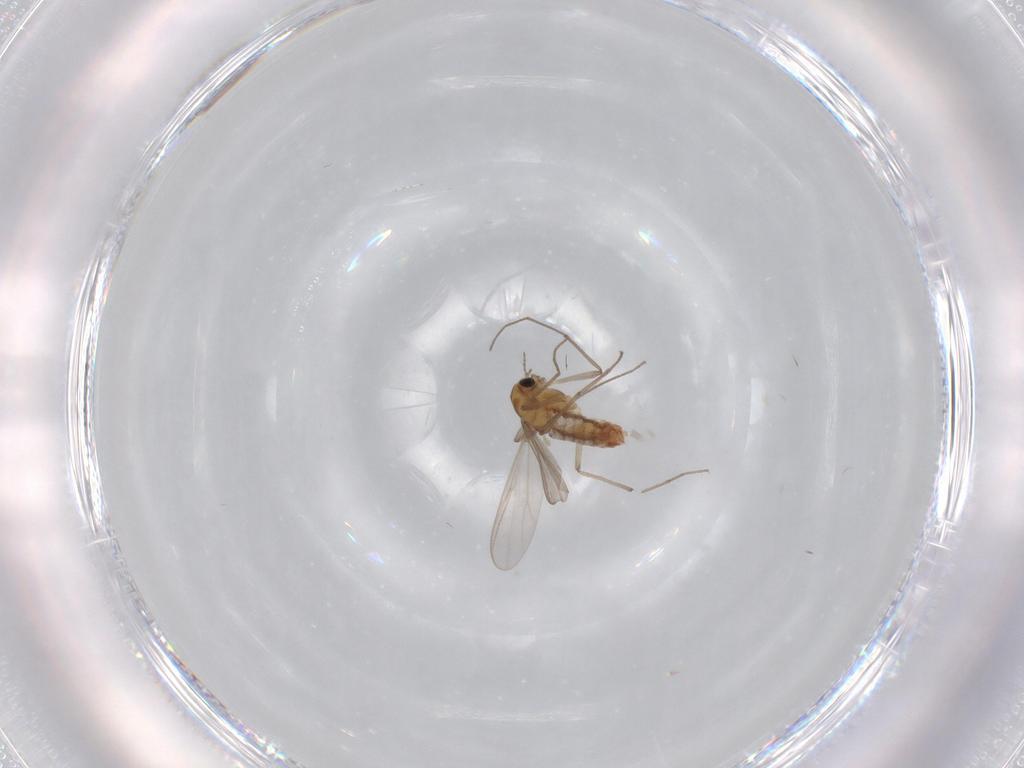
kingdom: Animalia
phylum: Arthropoda
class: Insecta
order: Diptera
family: Chironomidae
